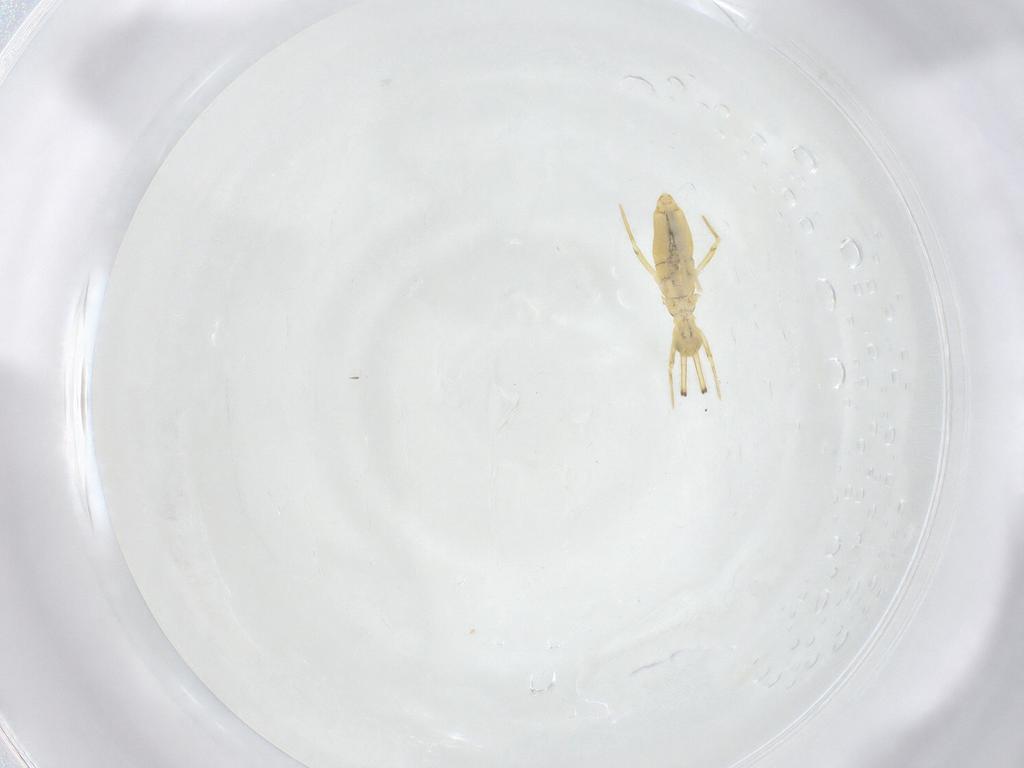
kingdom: Animalia
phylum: Arthropoda
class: Collembola
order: Entomobryomorpha
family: Paronellidae
